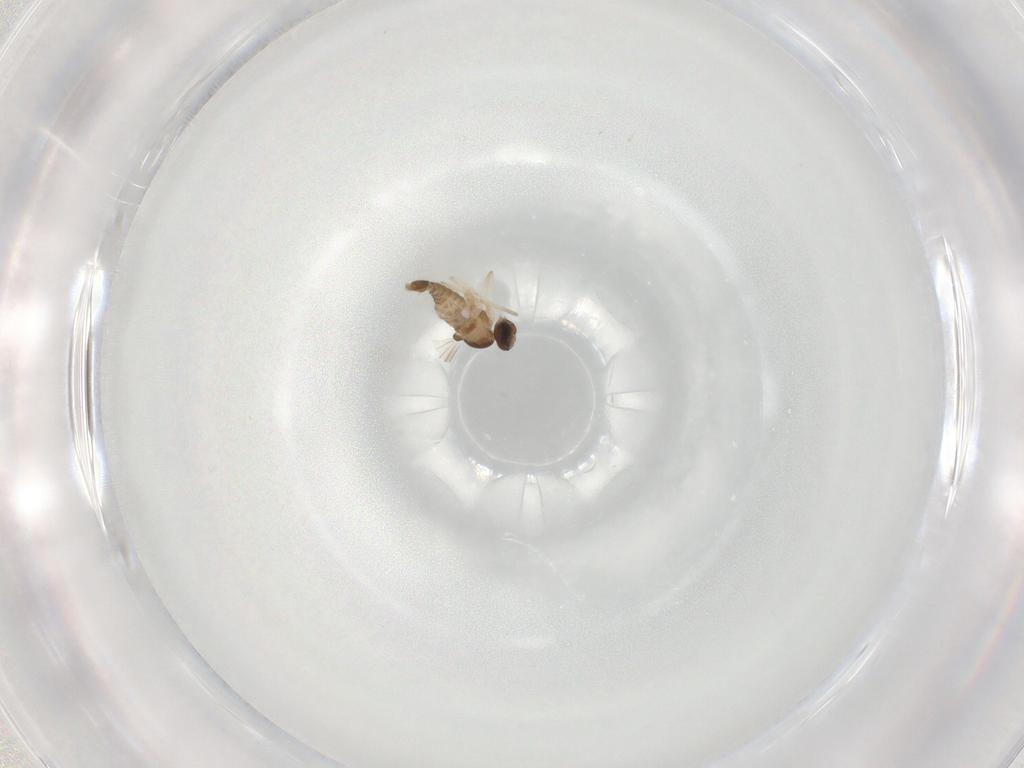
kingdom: Animalia
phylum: Arthropoda
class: Insecta
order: Diptera
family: Cecidomyiidae
